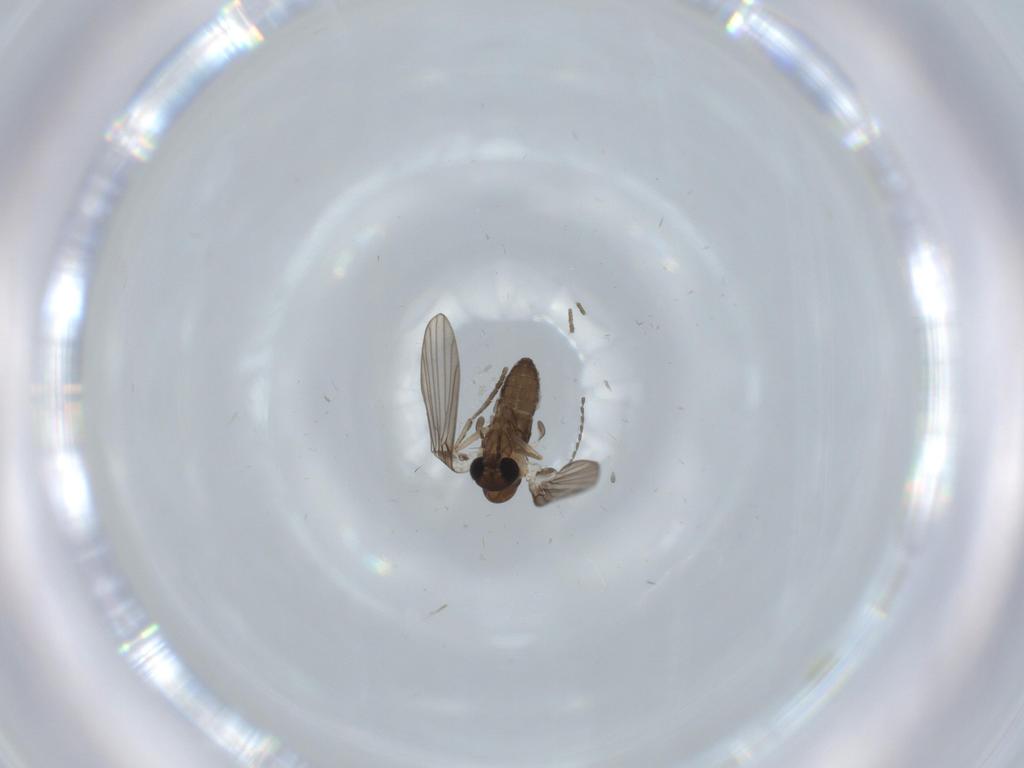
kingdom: Animalia
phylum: Arthropoda
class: Insecta
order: Diptera
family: Psychodidae
